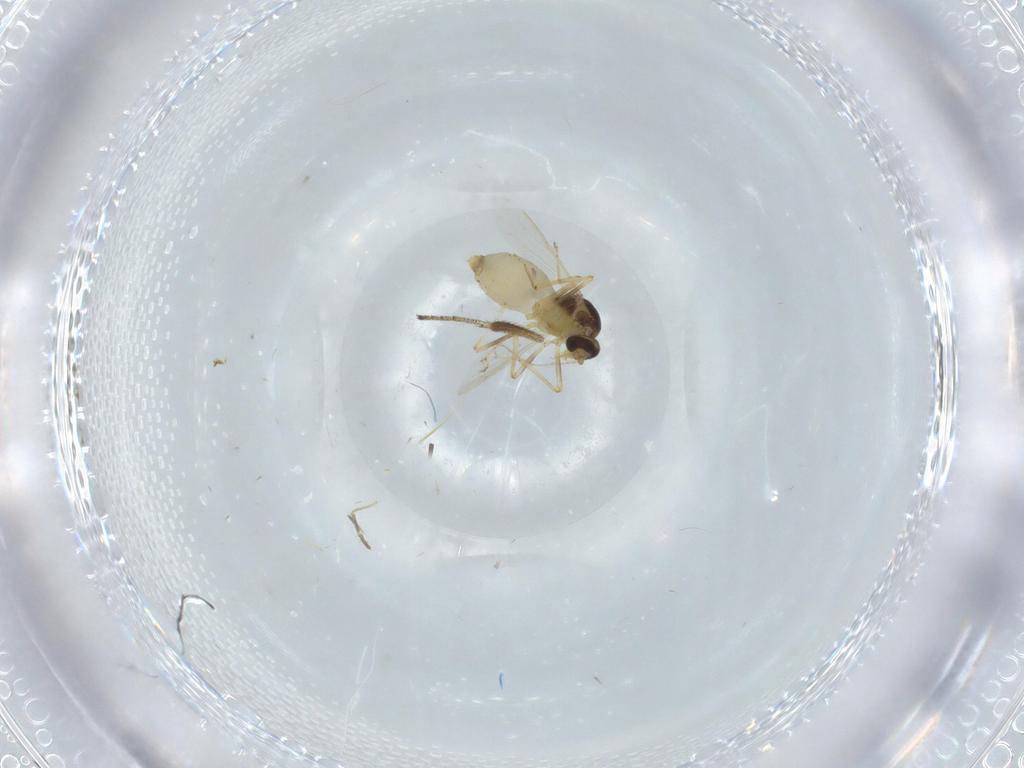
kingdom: Animalia
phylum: Arthropoda
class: Insecta
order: Diptera
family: Ceratopogonidae
